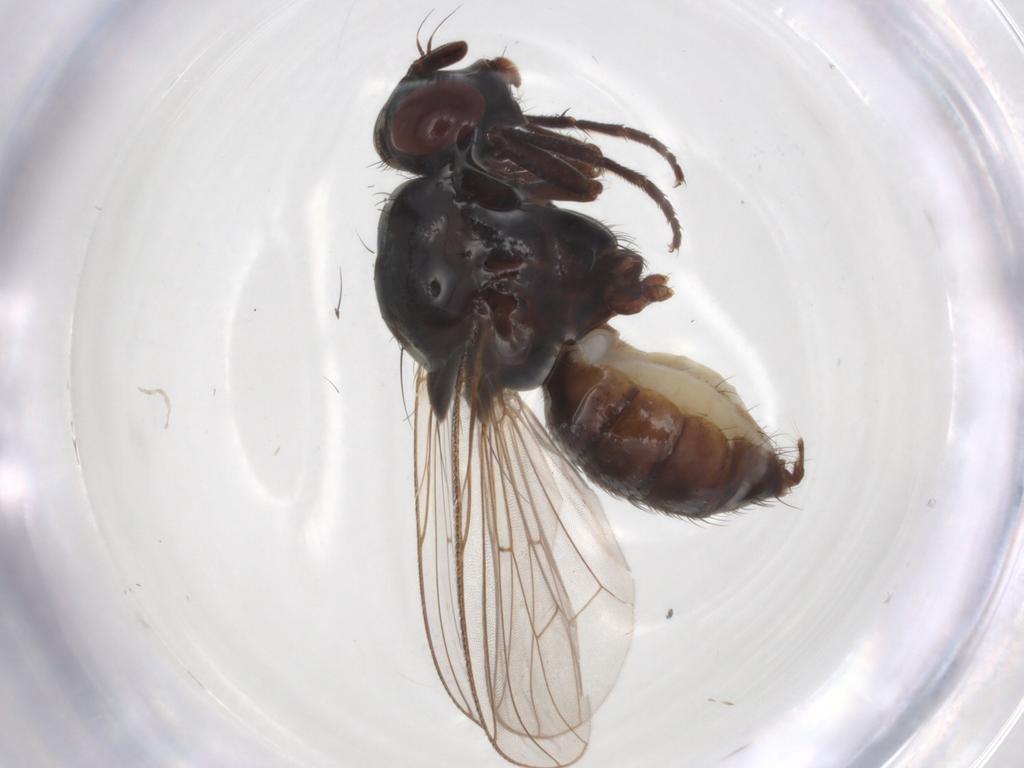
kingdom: Animalia
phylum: Arthropoda
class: Insecta
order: Diptera
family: Anthomyiidae
